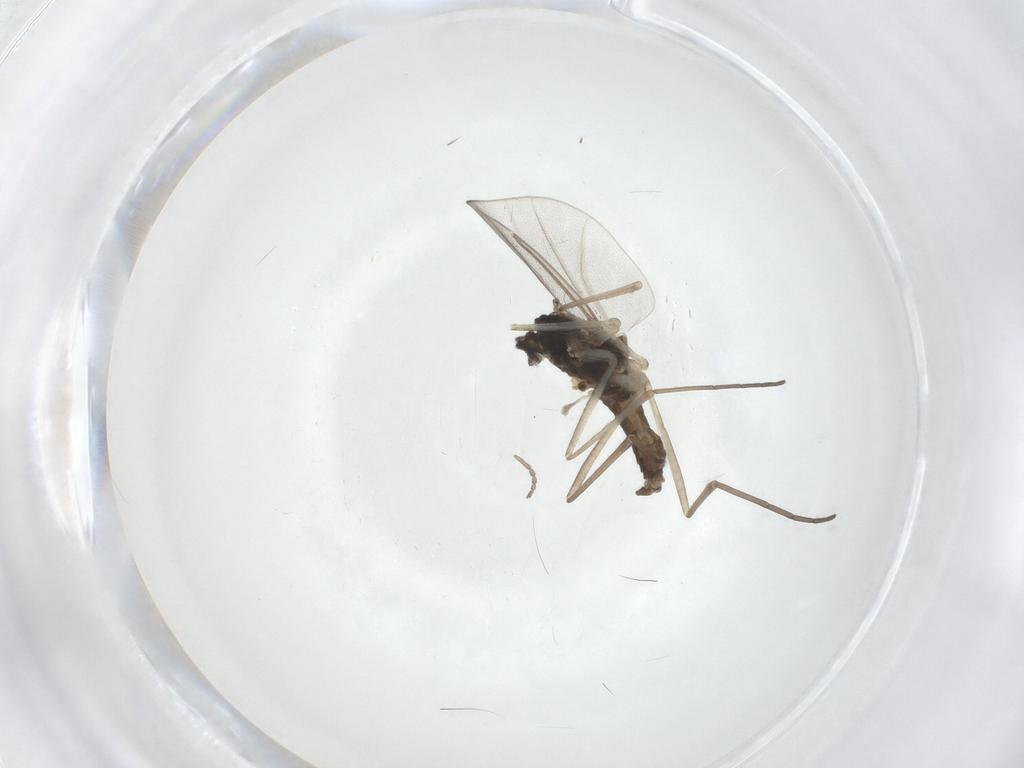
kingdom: Animalia
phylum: Arthropoda
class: Insecta
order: Diptera
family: Cecidomyiidae
